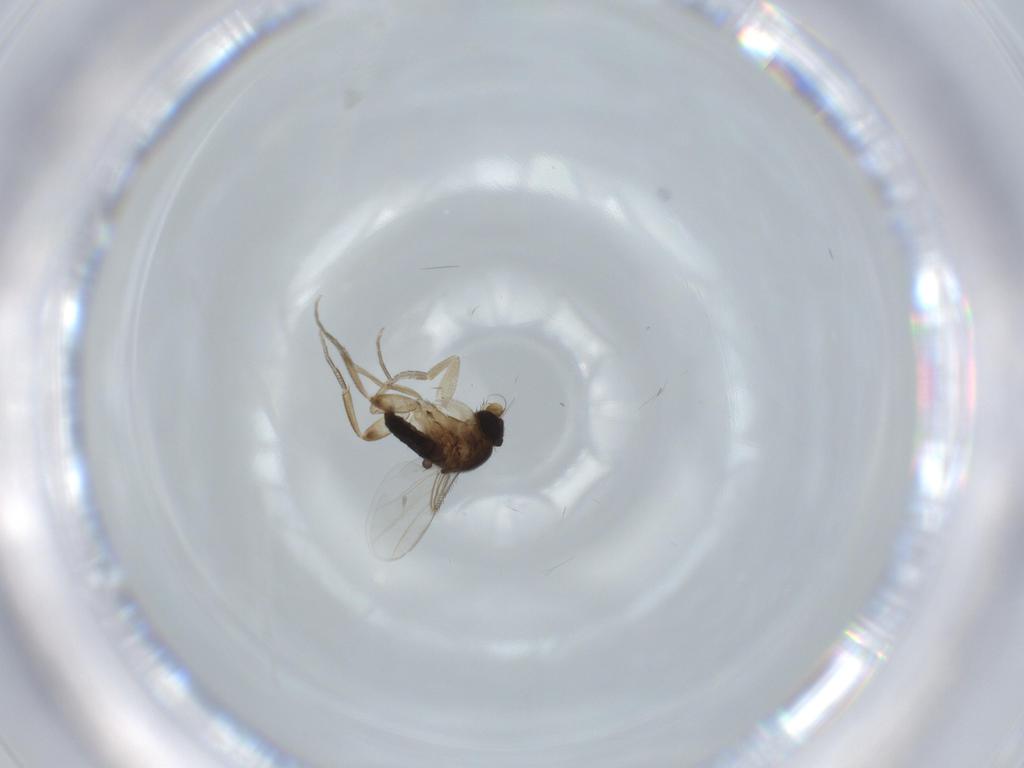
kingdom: Animalia
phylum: Arthropoda
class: Insecta
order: Diptera
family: Phoridae
